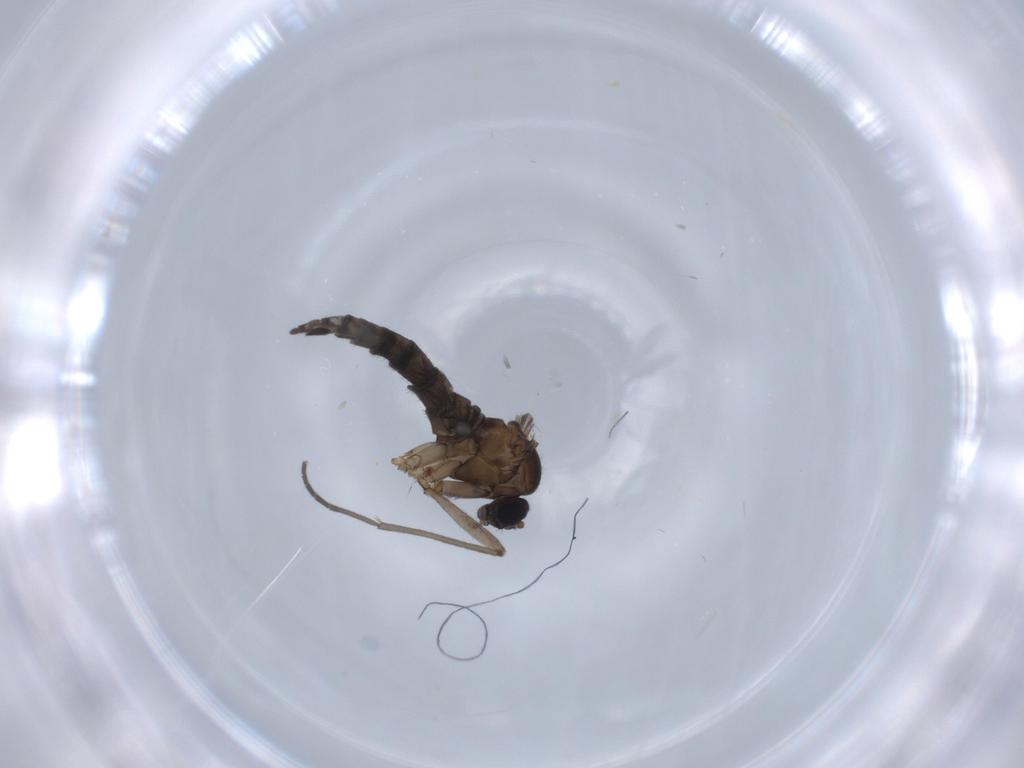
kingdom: Animalia
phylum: Arthropoda
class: Insecta
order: Diptera
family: Sciaridae
